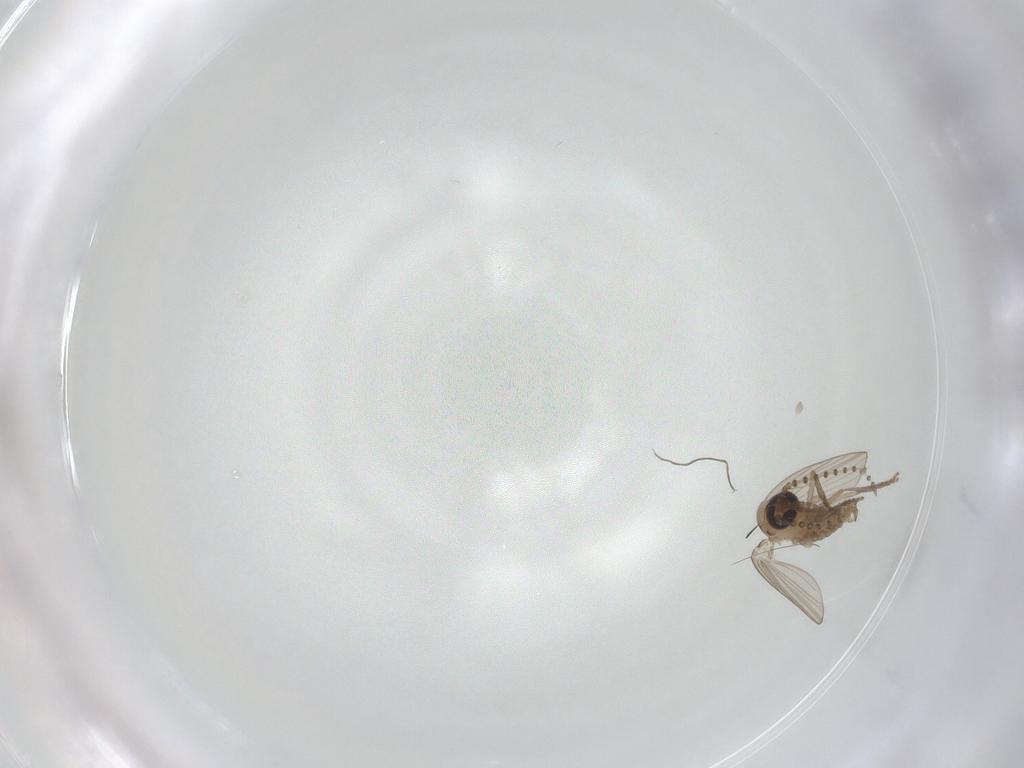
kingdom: Animalia
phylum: Arthropoda
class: Insecta
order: Diptera
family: Psychodidae
